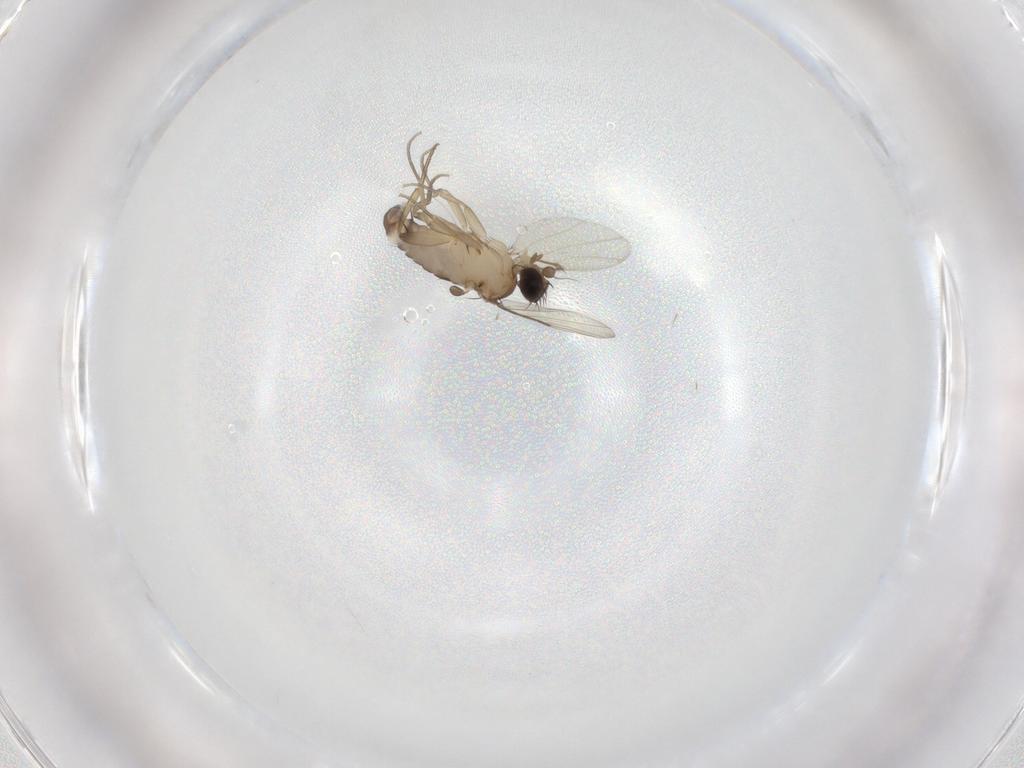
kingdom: Animalia
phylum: Arthropoda
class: Insecta
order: Diptera
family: Phoridae
